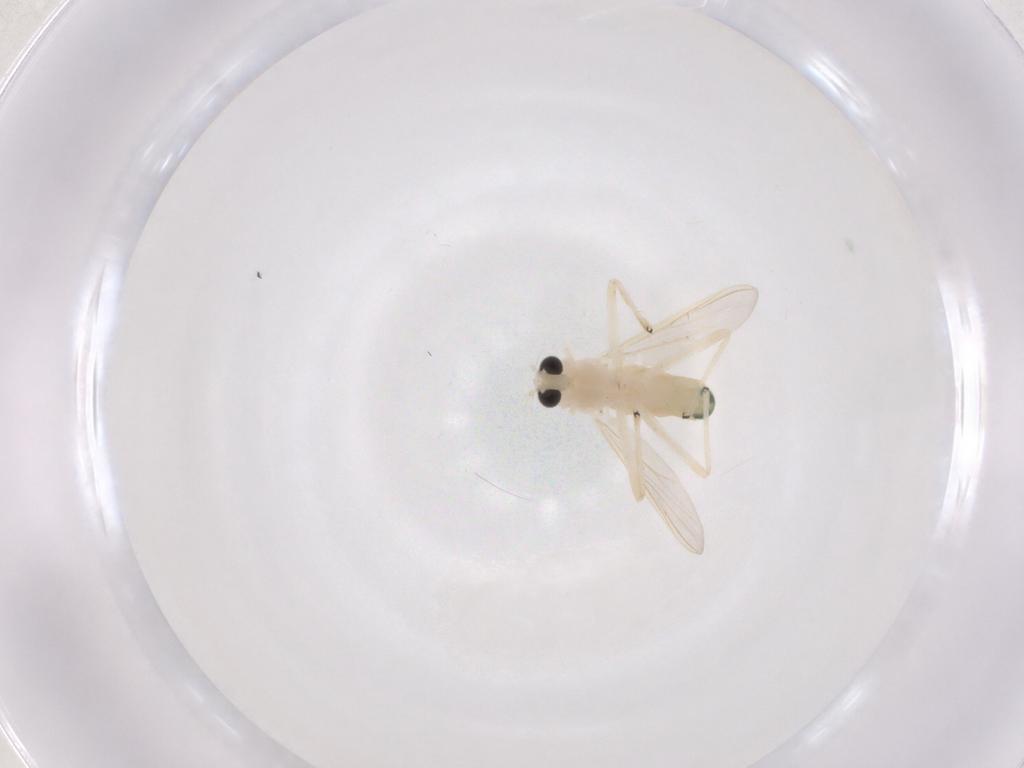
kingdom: Animalia
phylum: Arthropoda
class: Insecta
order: Diptera
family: Chironomidae
